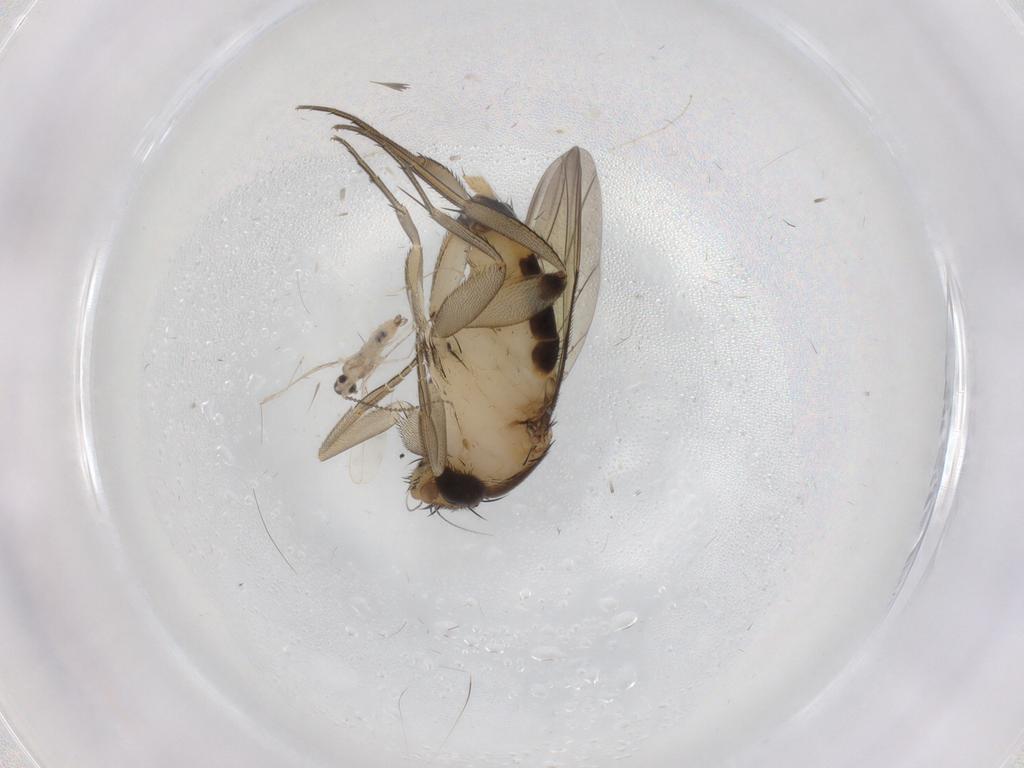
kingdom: Animalia
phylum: Arthropoda
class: Insecta
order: Diptera
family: Phoridae
